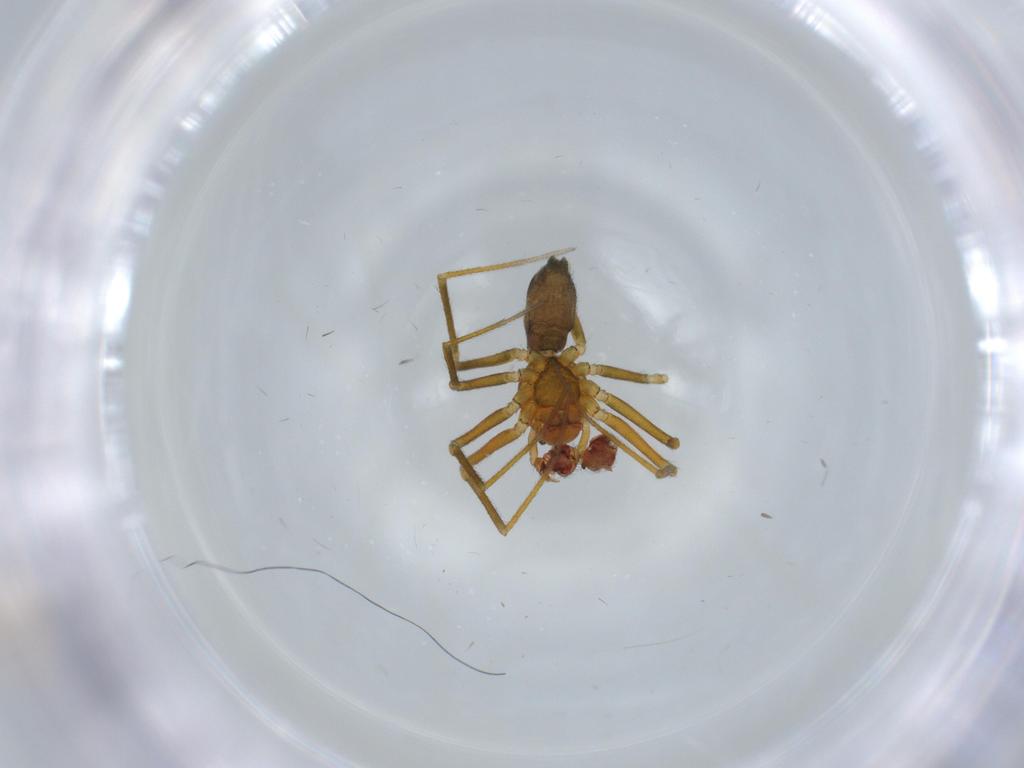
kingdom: Animalia
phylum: Arthropoda
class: Arachnida
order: Araneae
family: Linyphiidae
